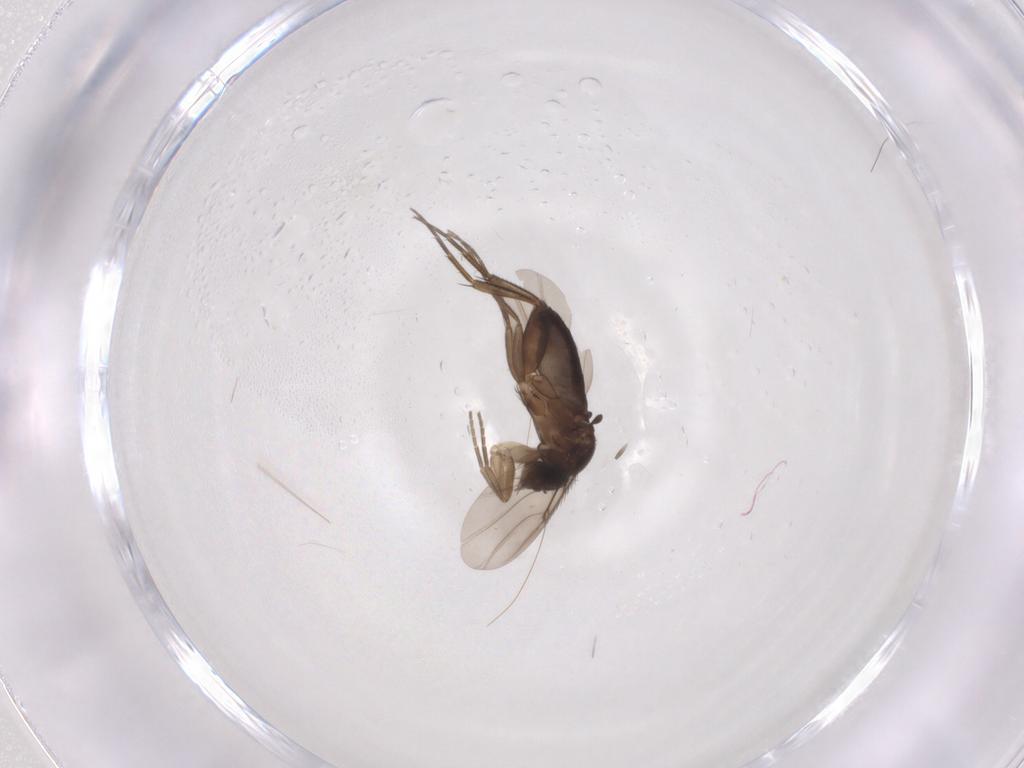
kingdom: Animalia
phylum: Arthropoda
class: Insecta
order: Diptera
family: Phoridae
